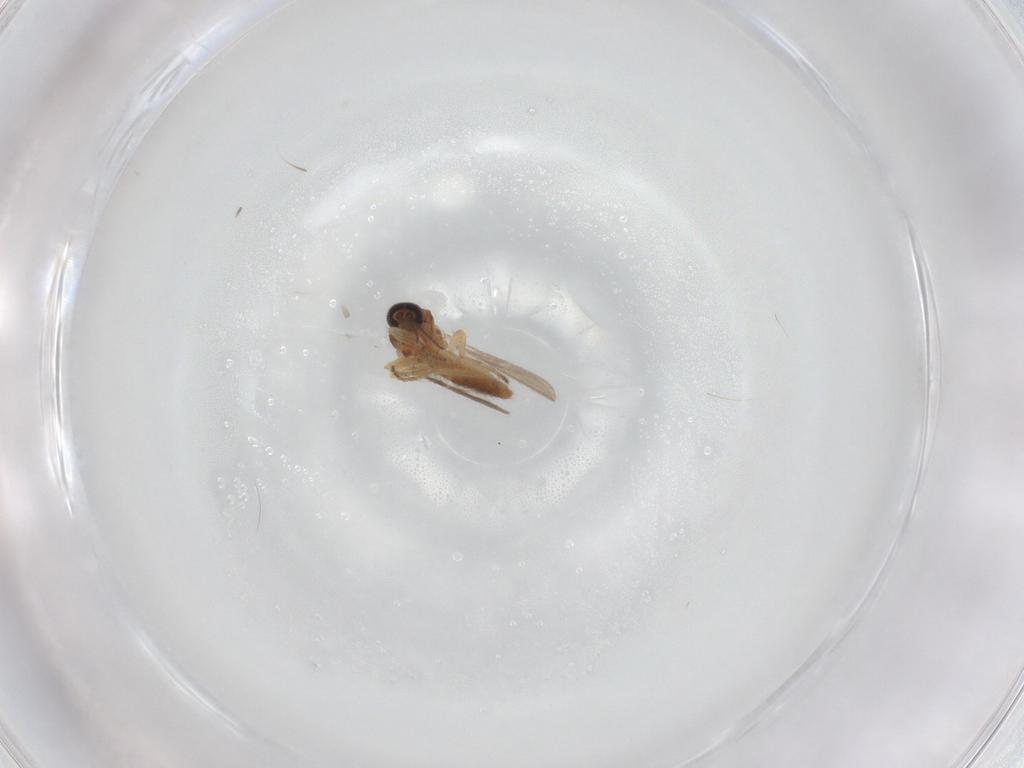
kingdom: Animalia
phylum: Arthropoda
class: Insecta
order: Diptera
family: Ceratopogonidae
